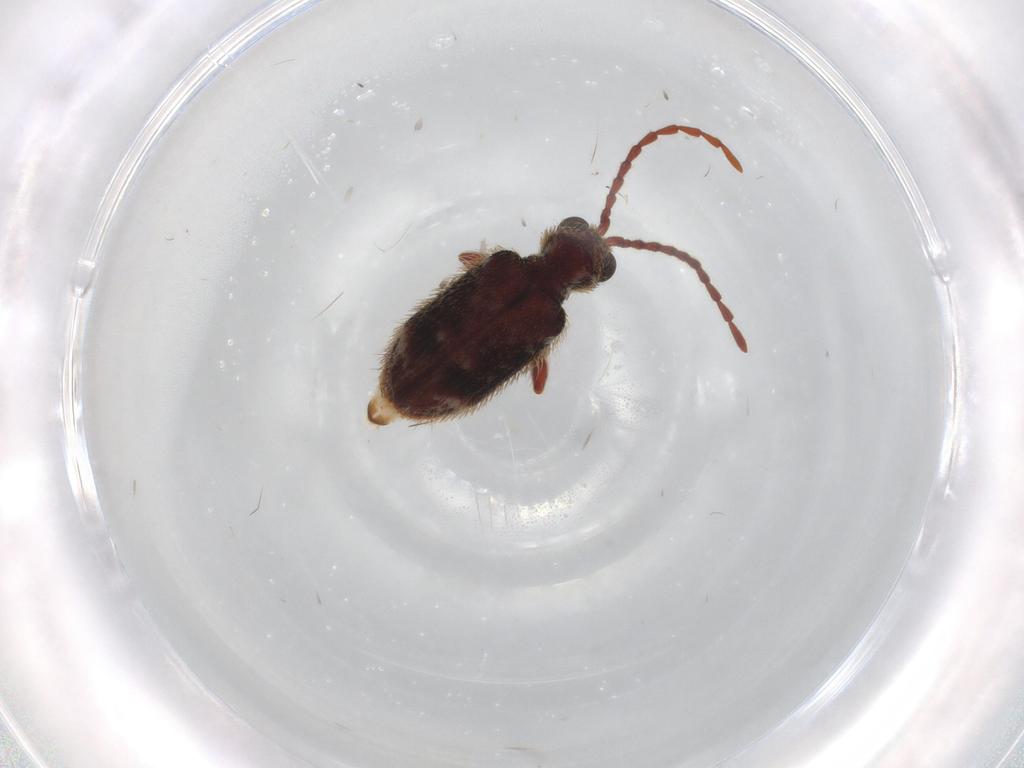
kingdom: Animalia
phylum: Arthropoda
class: Insecta
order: Coleoptera
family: Ptinidae
